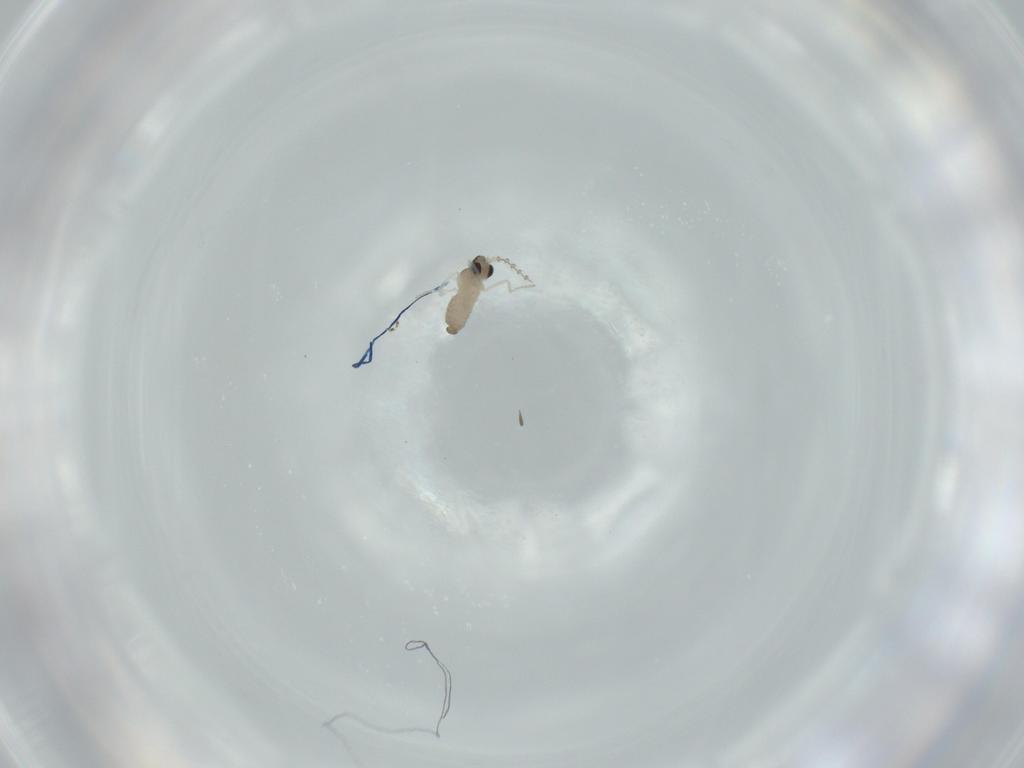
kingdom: Animalia
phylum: Arthropoda
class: Insecta
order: Diptera
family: Cecidomyiidae
